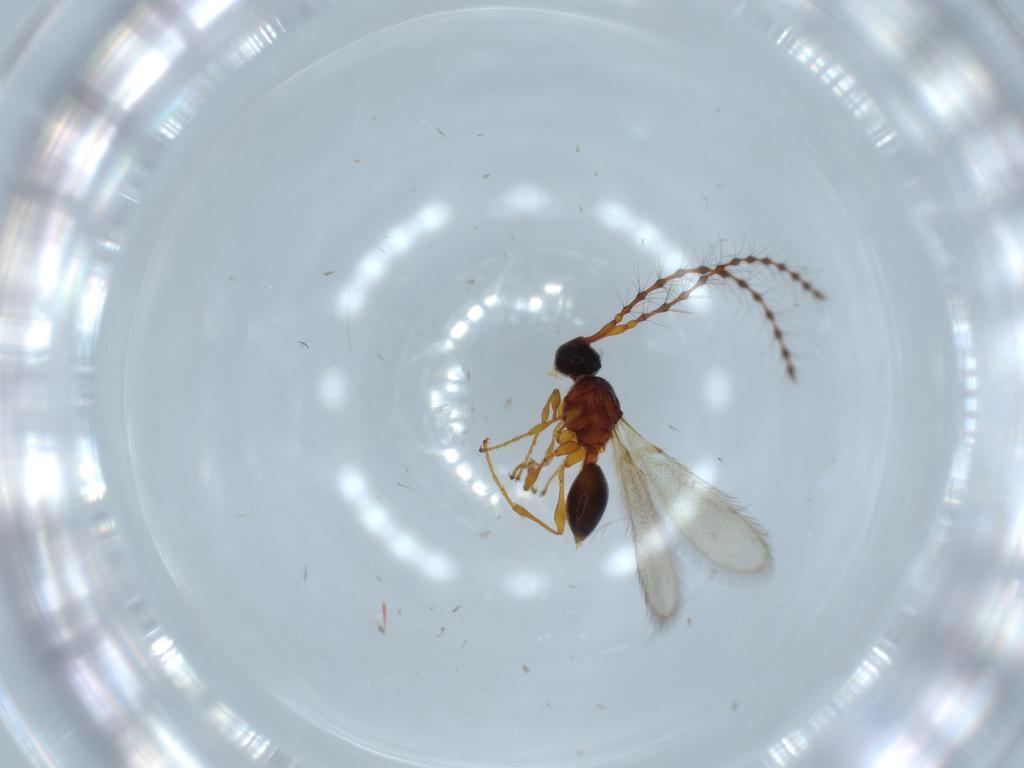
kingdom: Animalia
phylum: Arthropoda
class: Insecta
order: Hymenoptera
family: Diapriidae
